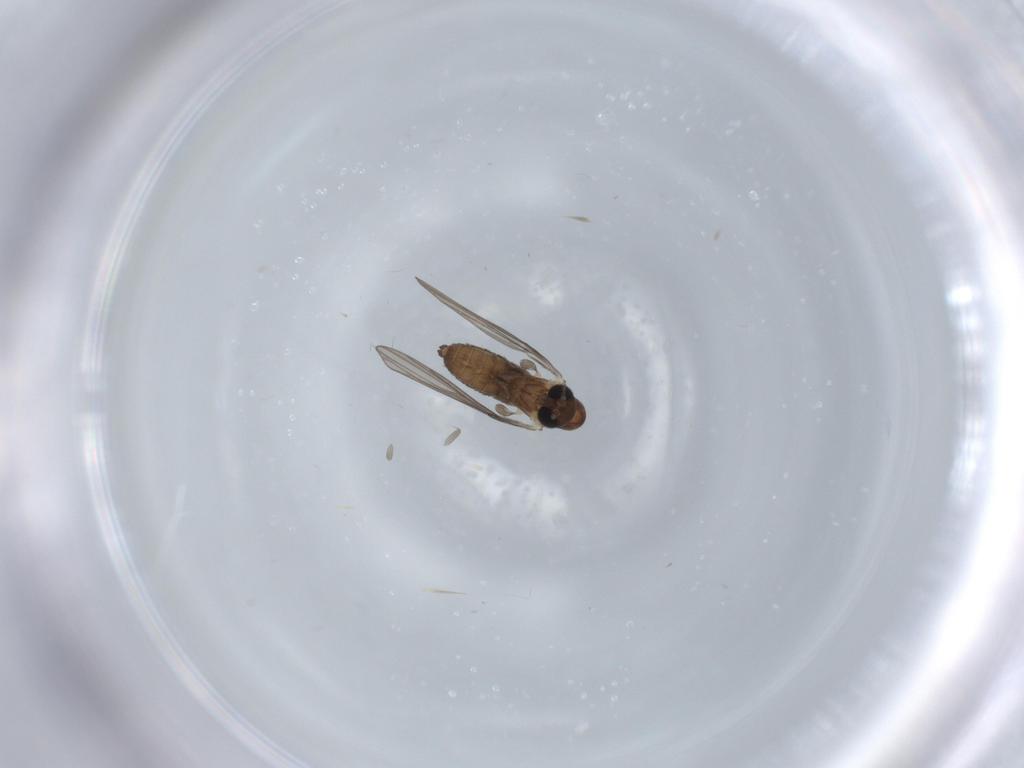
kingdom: Animalia
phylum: Arthropoda
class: Insecta
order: Diptera
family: Psychodidae
